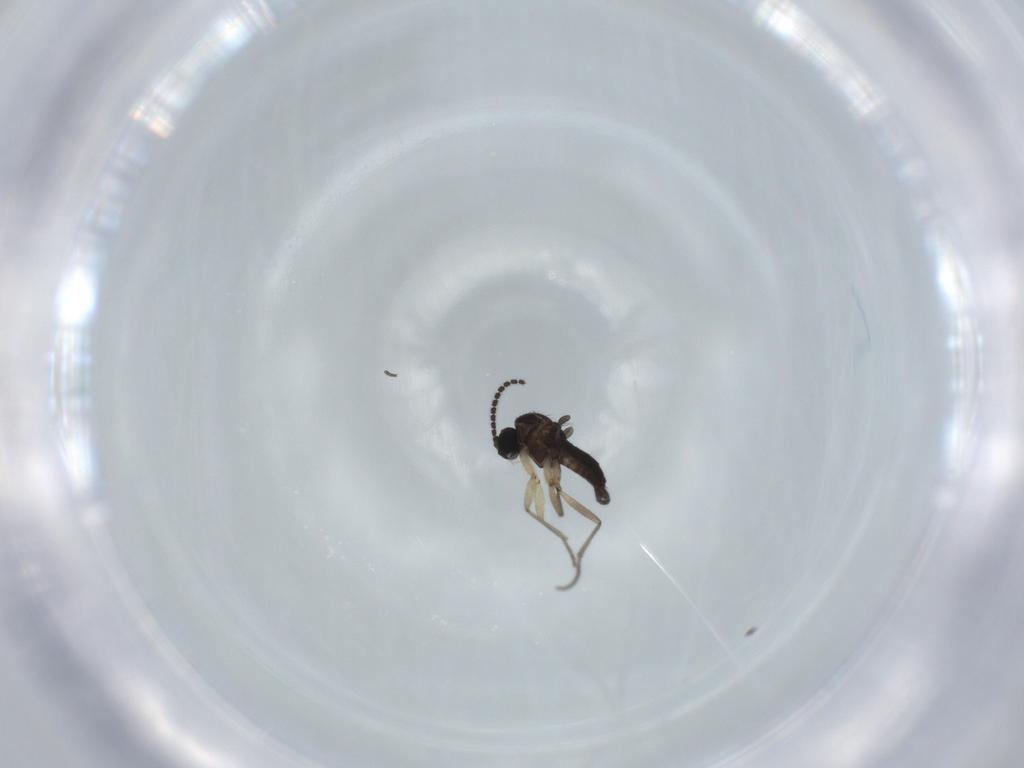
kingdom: Animalia
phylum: Arthropoda
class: Insecta
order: Diptera
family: Sciaridae
